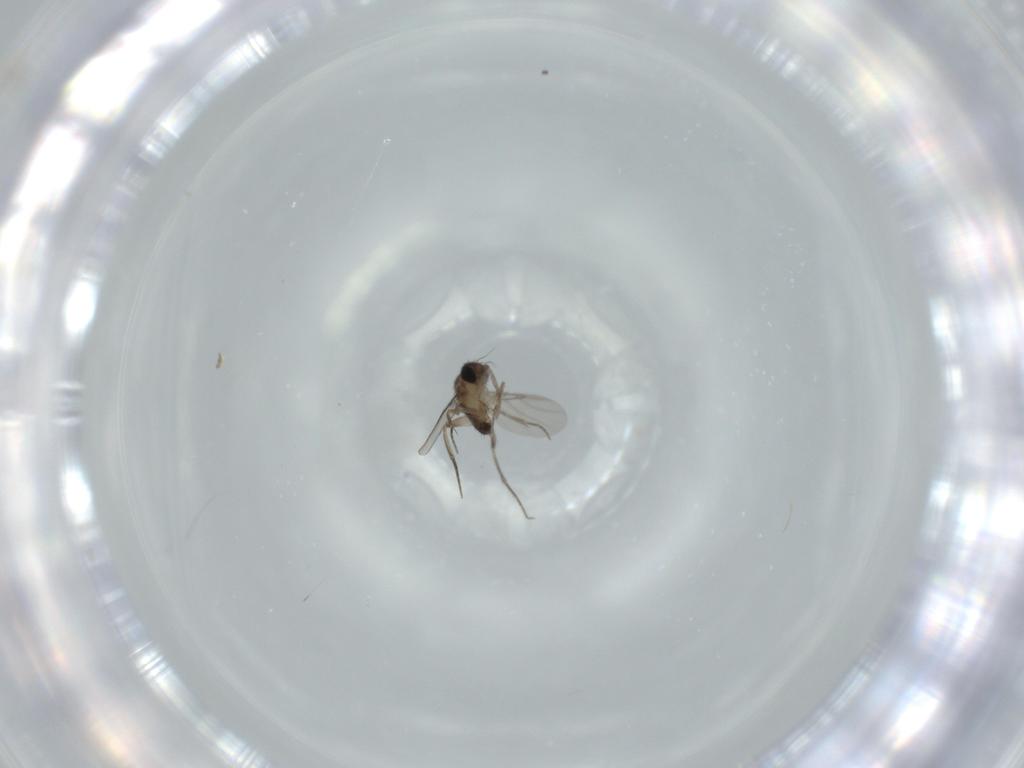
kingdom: Animalia
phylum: Arthropoda
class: Insecta
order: Diptera
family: Phoridae
